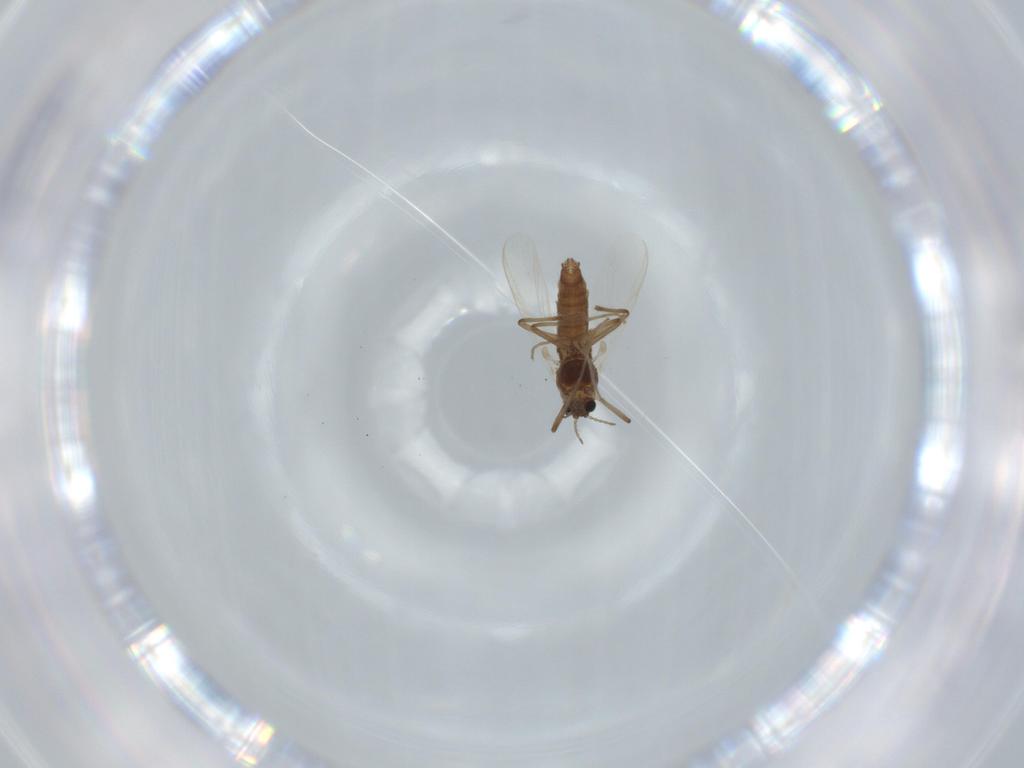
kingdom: Animalia
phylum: Arthropoda
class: Insecta
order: Diptera
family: Chironomidae
